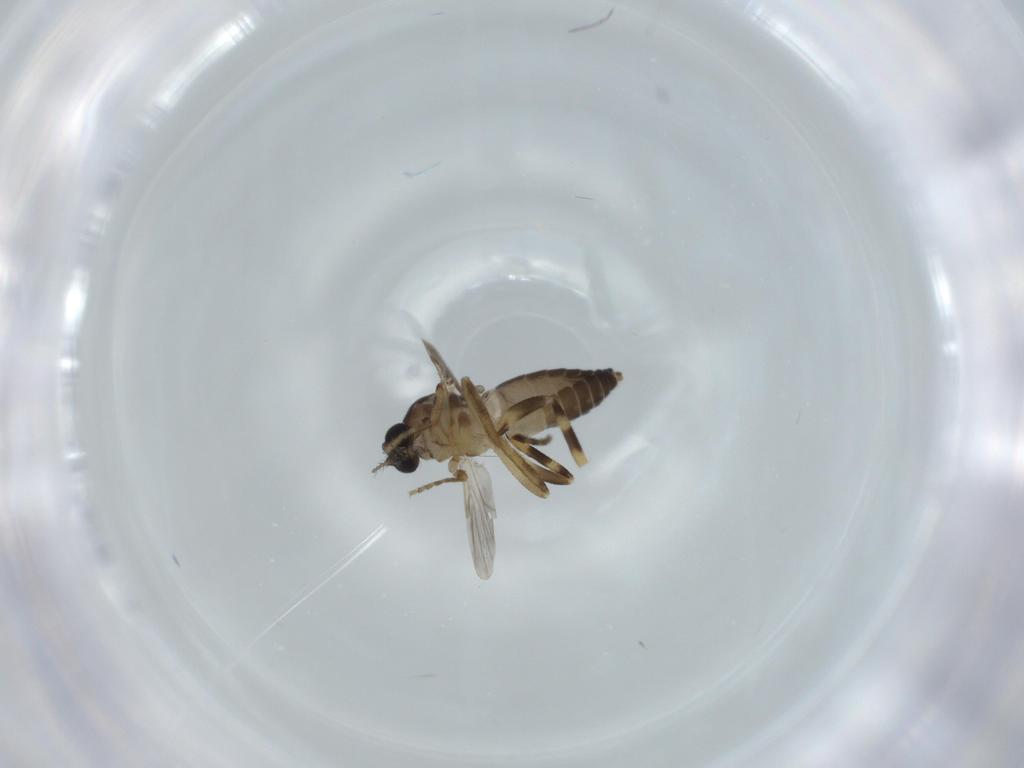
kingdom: Animalia
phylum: Arthropoda
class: Insecta
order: Diptera
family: Ceratopogonidae
